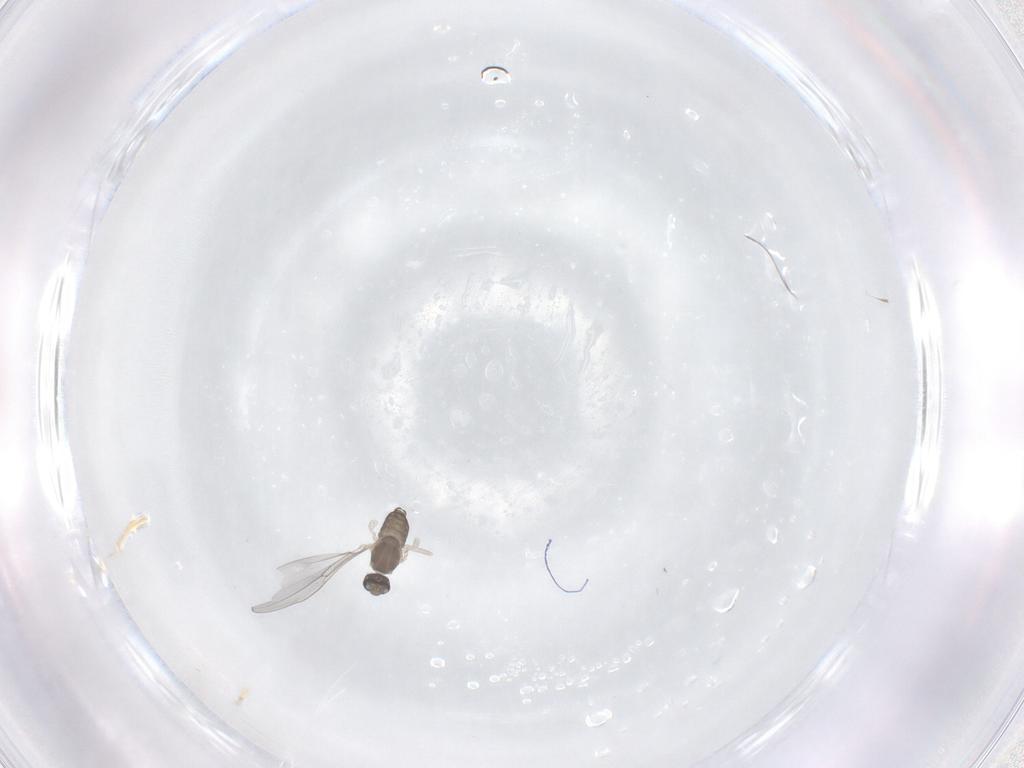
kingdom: Animalia
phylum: Arthropoda
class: Insecta
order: Diptera
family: Cecidomyiidae
